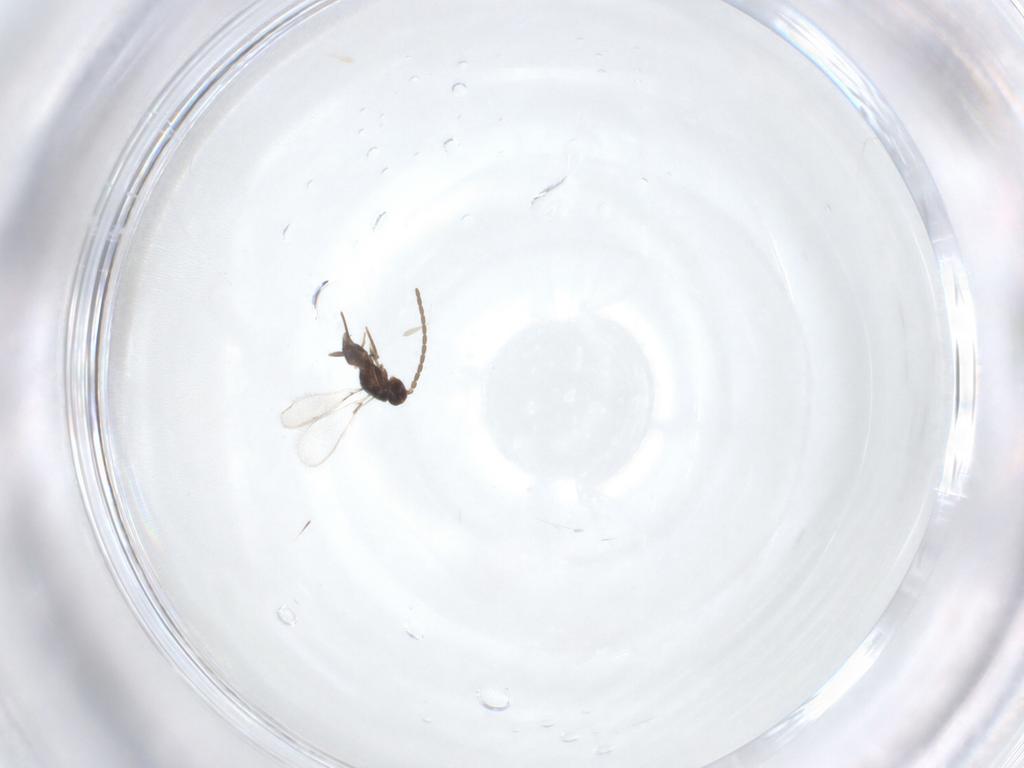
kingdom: Animalia
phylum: Arthropoda
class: Insecta
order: Hymenoptera
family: Mymaridae
